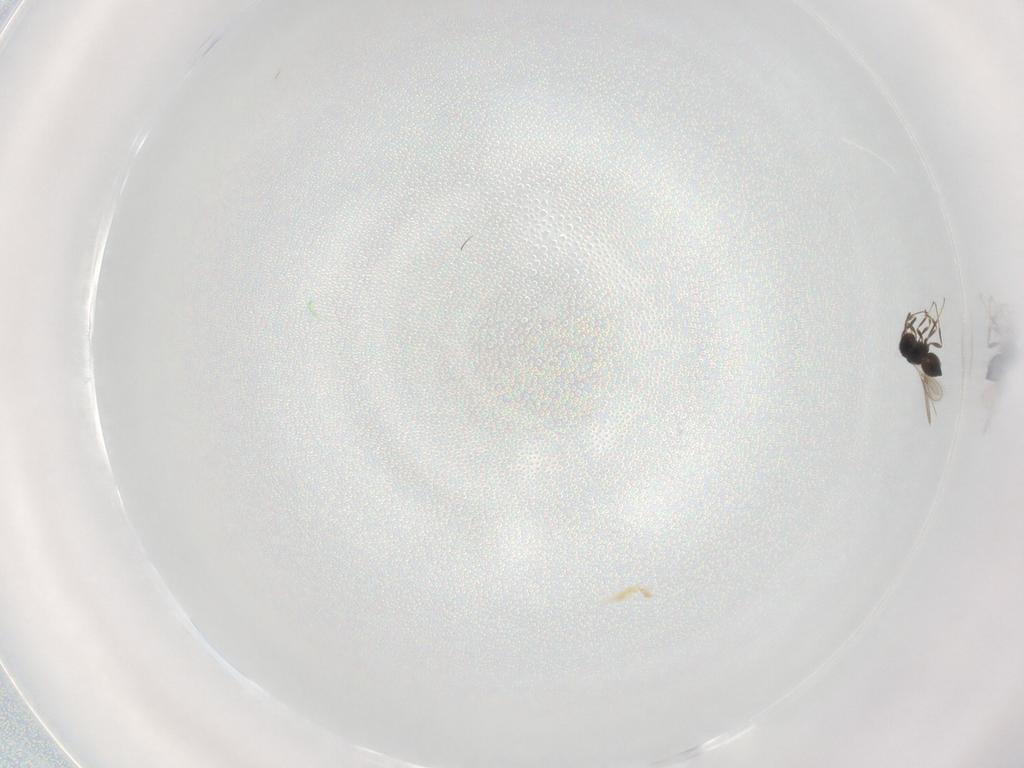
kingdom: Animalia
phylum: Arthropoda
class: Insecta
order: Hymenoptera
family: Scelionidae
